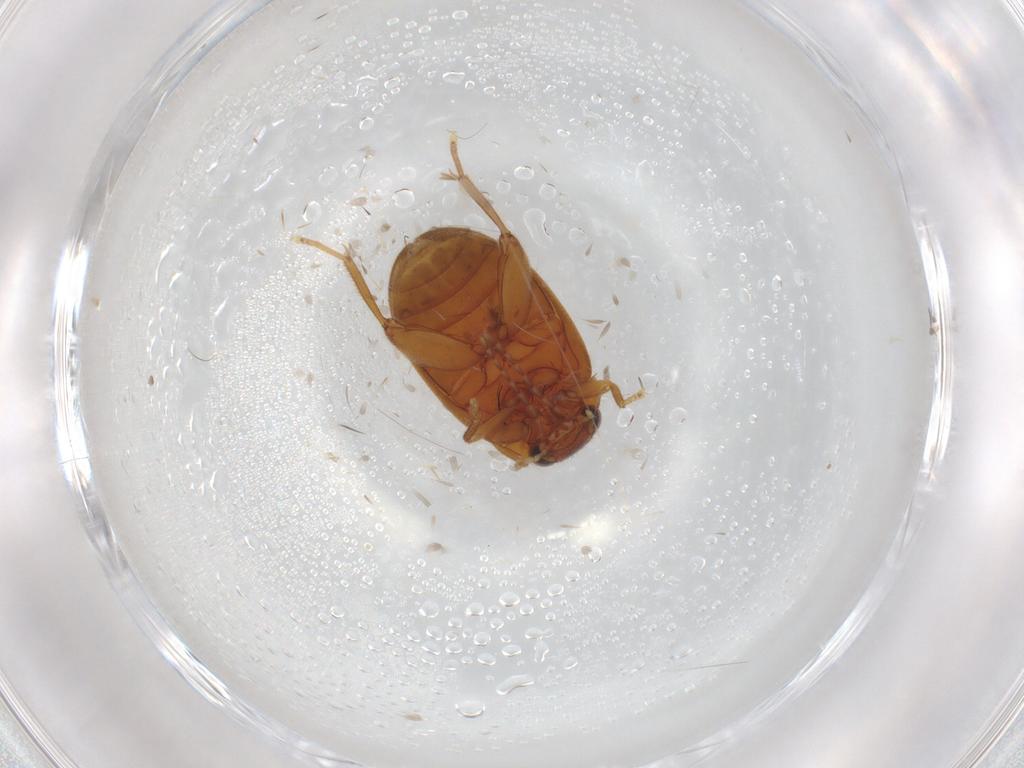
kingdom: Animalia
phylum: Arthropoda
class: Insecta
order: Coleoptera
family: Scirtidae
